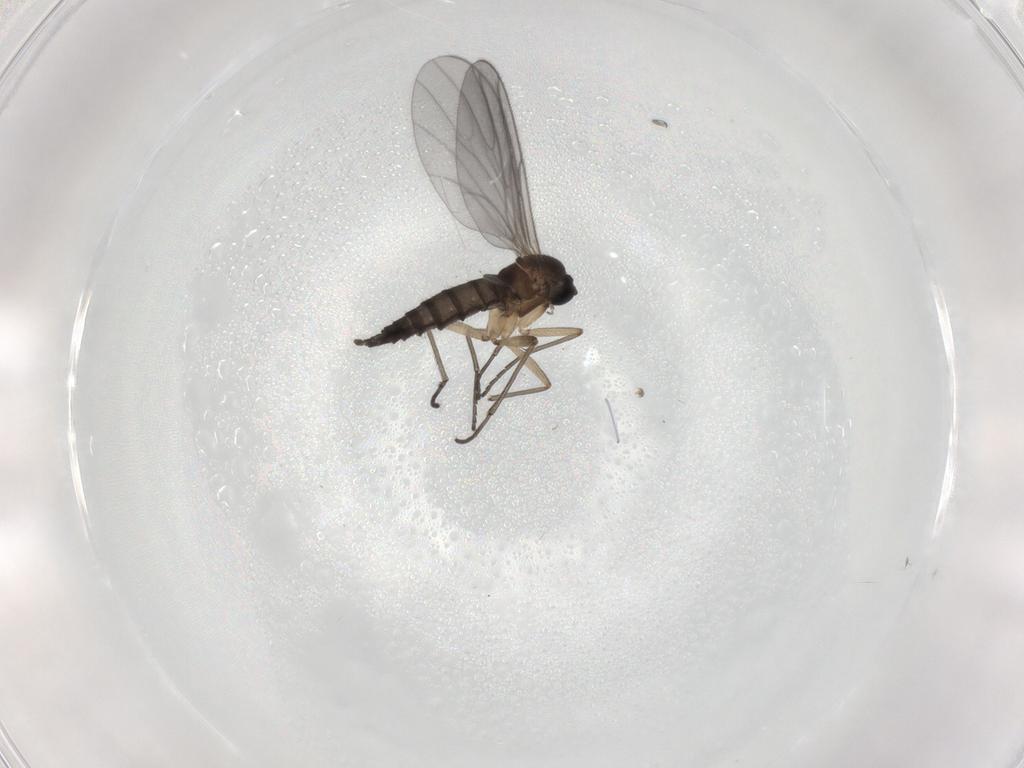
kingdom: Animalia
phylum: Arthropoda
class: Insecta
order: Diptera
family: Sciaridae
